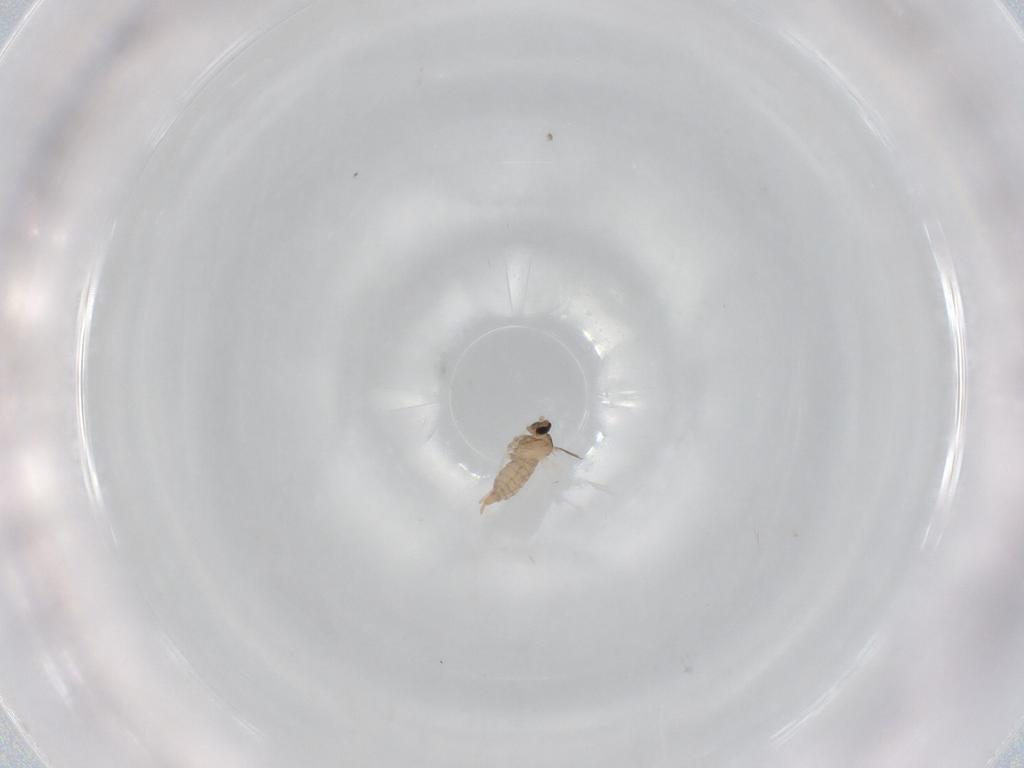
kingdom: Animalia
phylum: Arthropoda
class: Insecta
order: Diptera
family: Cecidomyiidae
